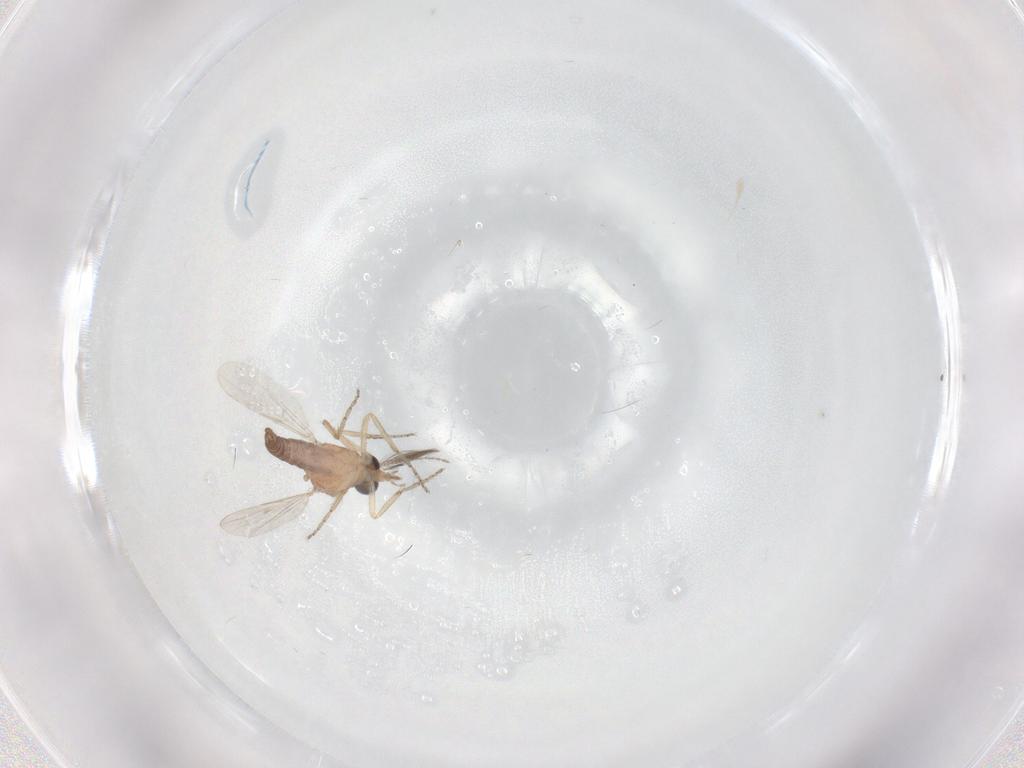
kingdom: Animalia
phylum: Arthropoda
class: Insecta
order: Diptera
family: Ceratopogonidae
